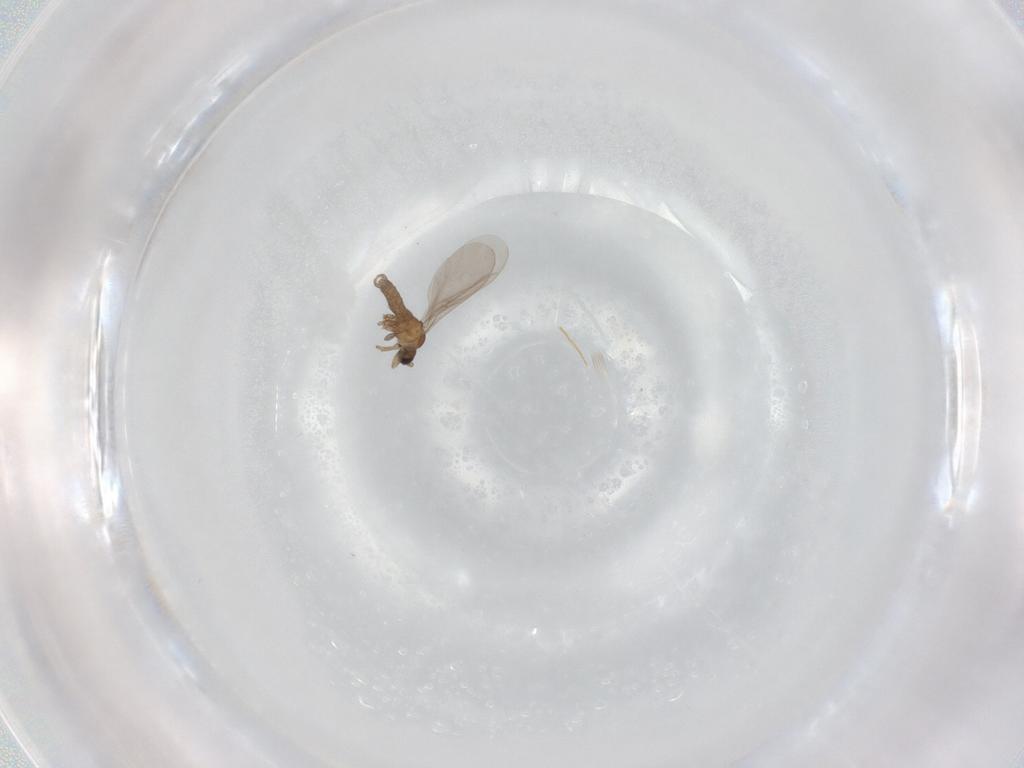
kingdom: Animalia
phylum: Arthropoda
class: Insecta
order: Diptera
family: Sciaridae
